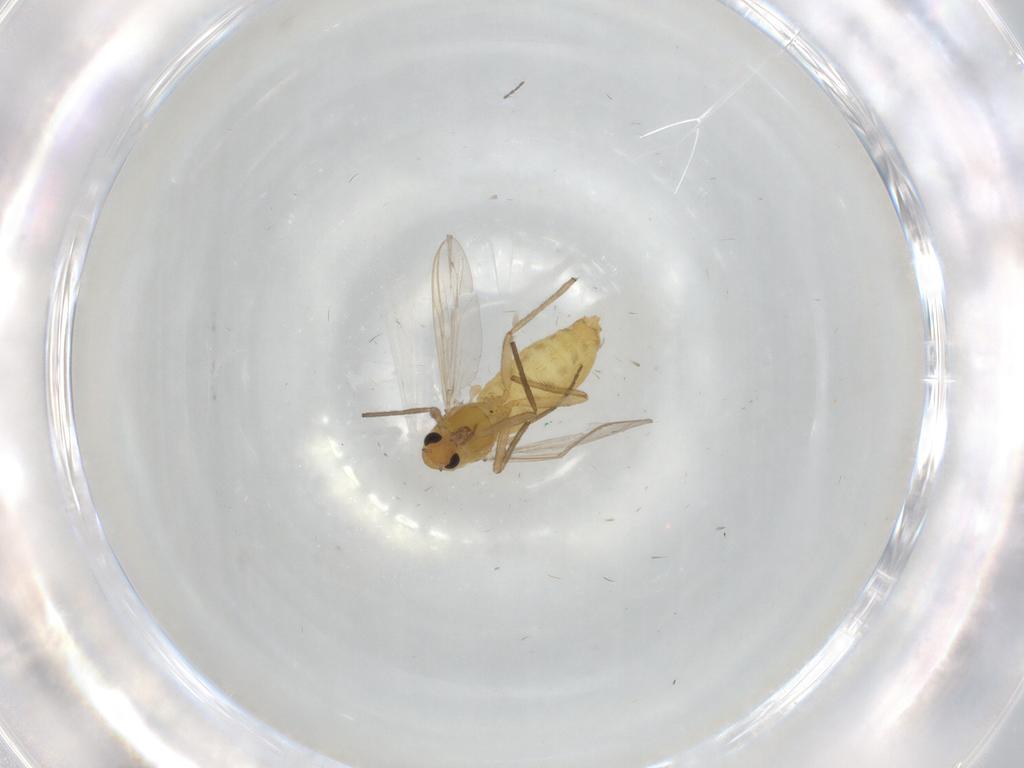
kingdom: Animalia
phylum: Arthropoda
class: Insecta
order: Diptera
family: Chironomidae
